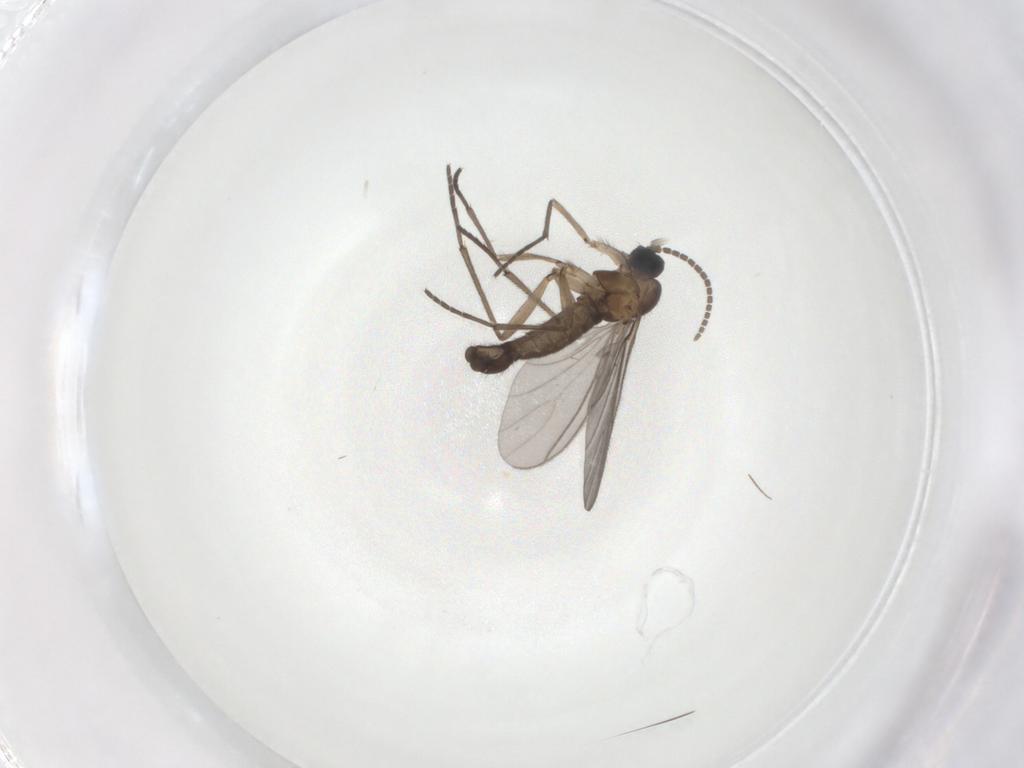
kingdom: Animalia
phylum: Arthropoda
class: Insecta
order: Diptera
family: Sciaridae
